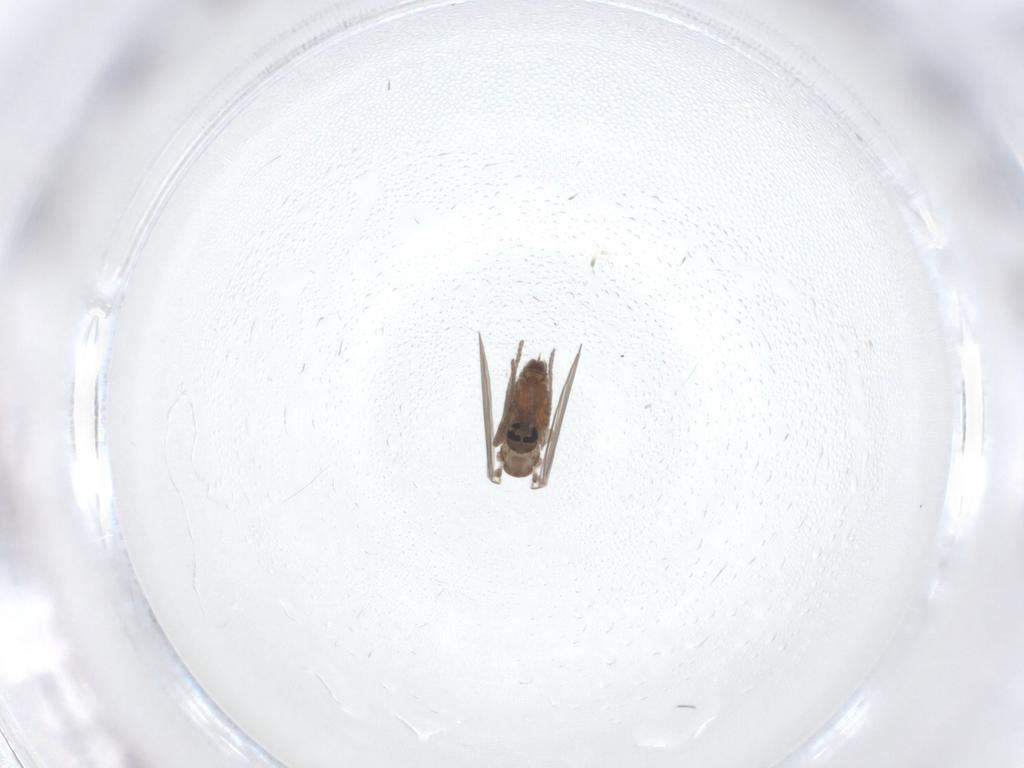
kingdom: Animalia
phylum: Arthropoda
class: Insecta
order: Diptera
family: Psychodidae
